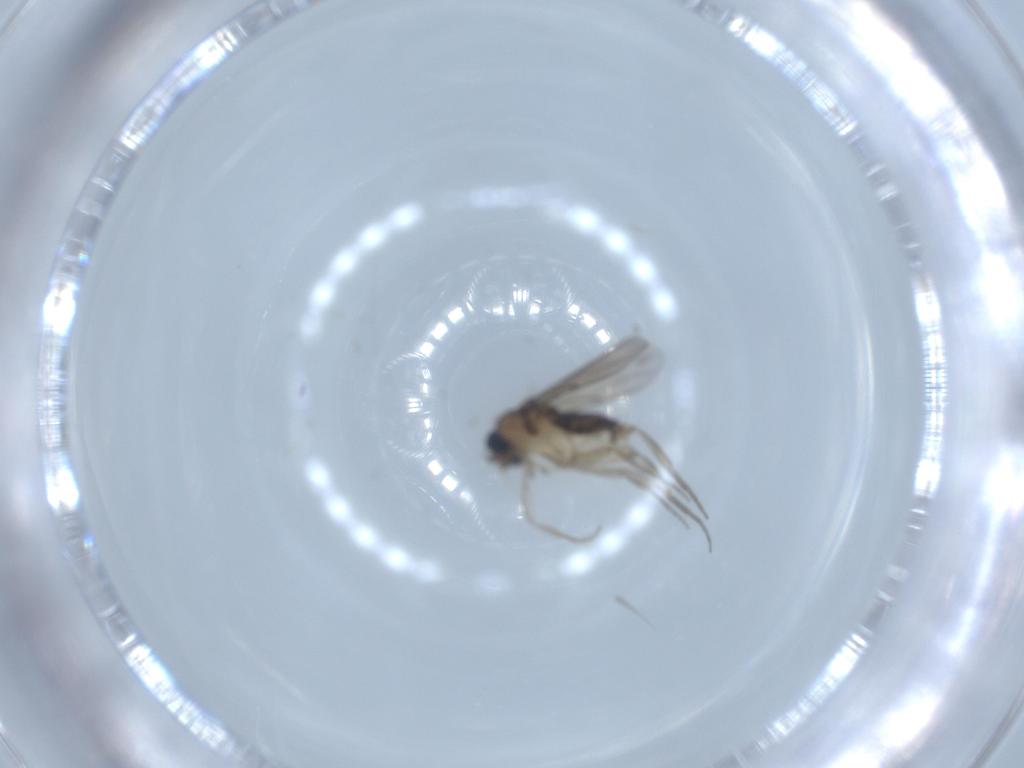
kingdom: Animalia
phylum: Arthropoda
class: Insecta
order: Diptera
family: Phoridae
